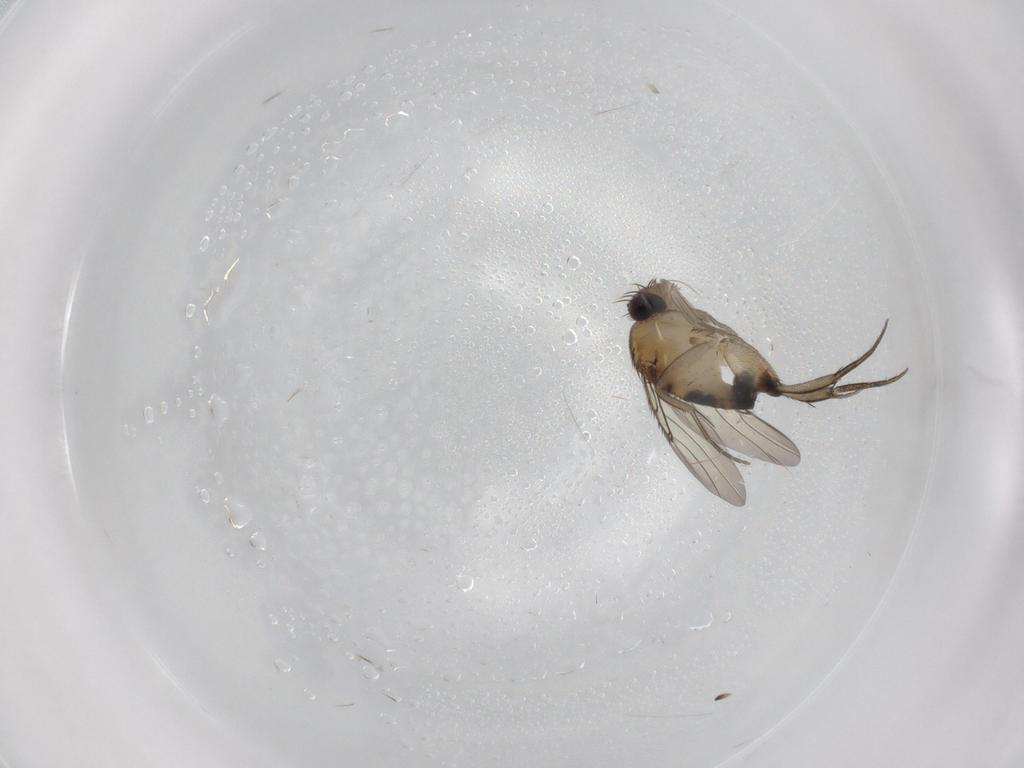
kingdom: Animalia
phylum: Arthropoda
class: Insecta
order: Diptera
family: Phoridae
